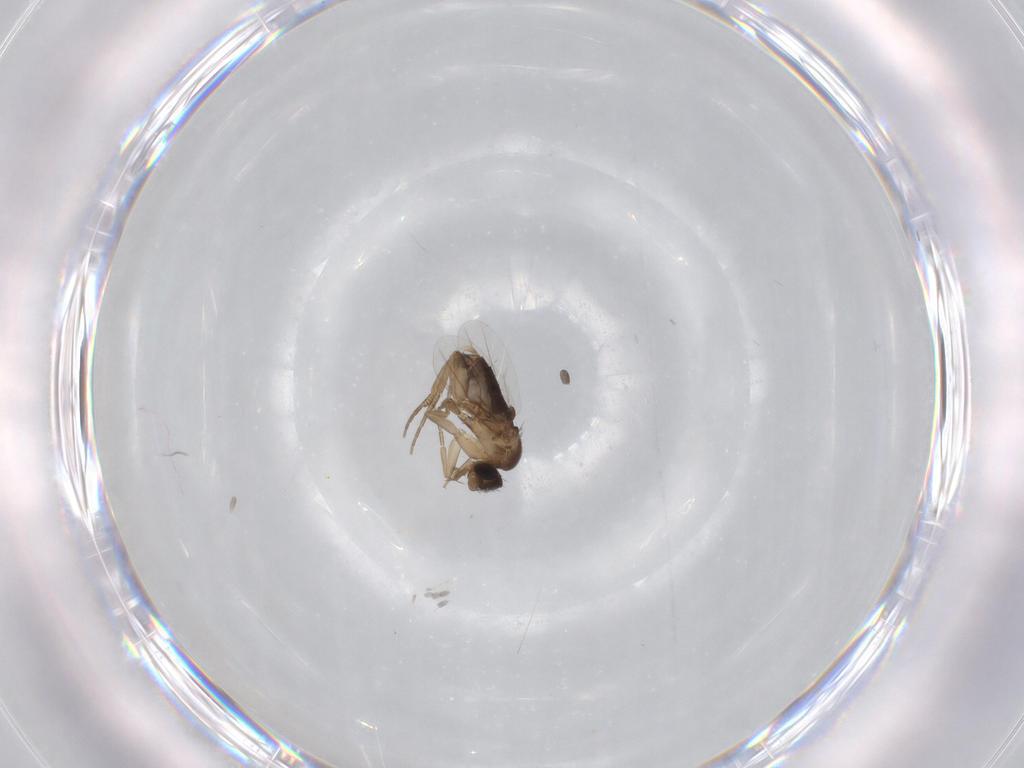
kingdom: Animalia
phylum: Arthropoda
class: Insecta
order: Diptera
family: Phoridae
